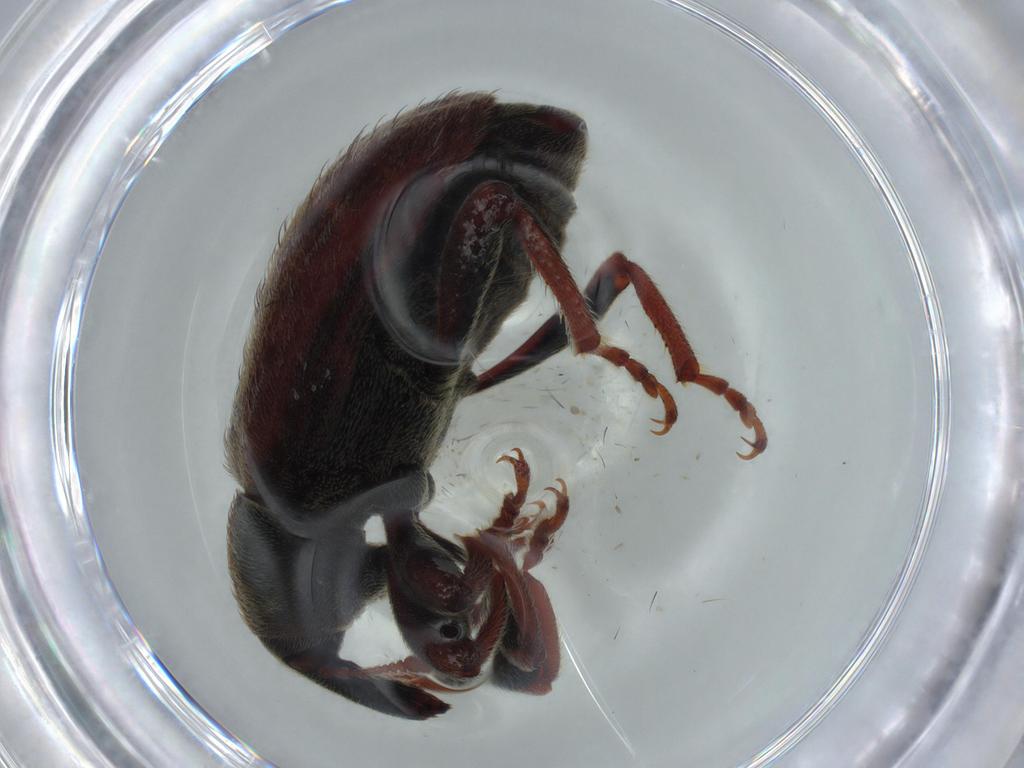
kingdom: Animalia
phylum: Arthropoda
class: Insecta
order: Coleoptera
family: Curculionidae
